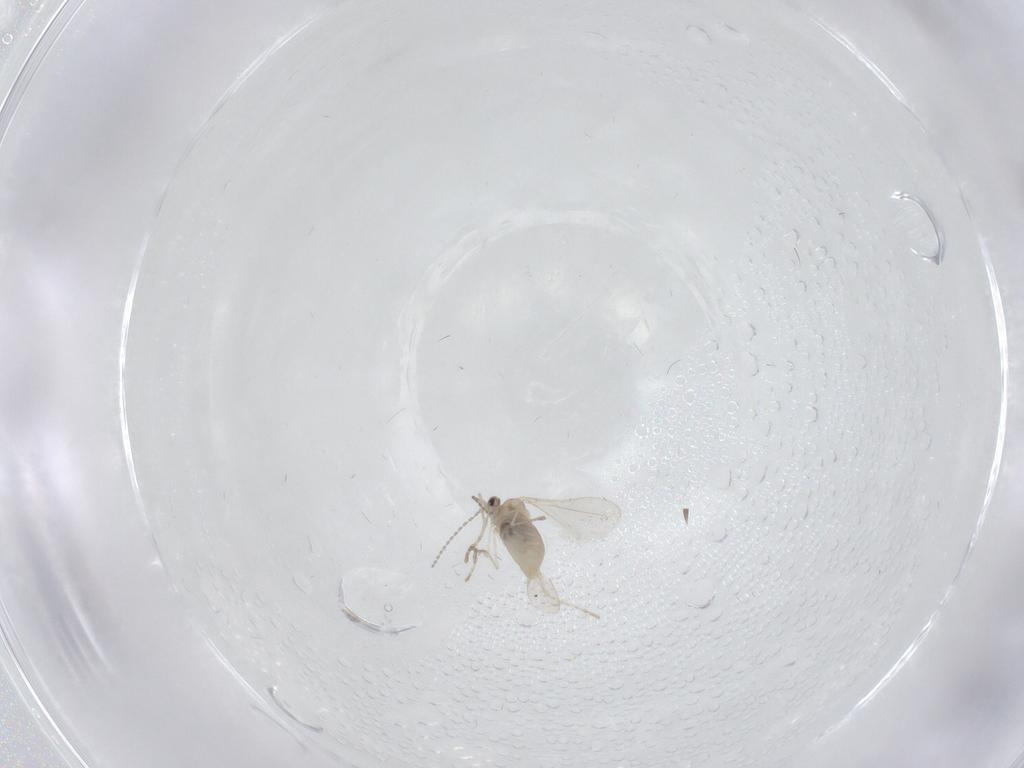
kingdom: Animalia
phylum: Arthropoda
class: Insecta
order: Diptera
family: Cecidomyiidae
